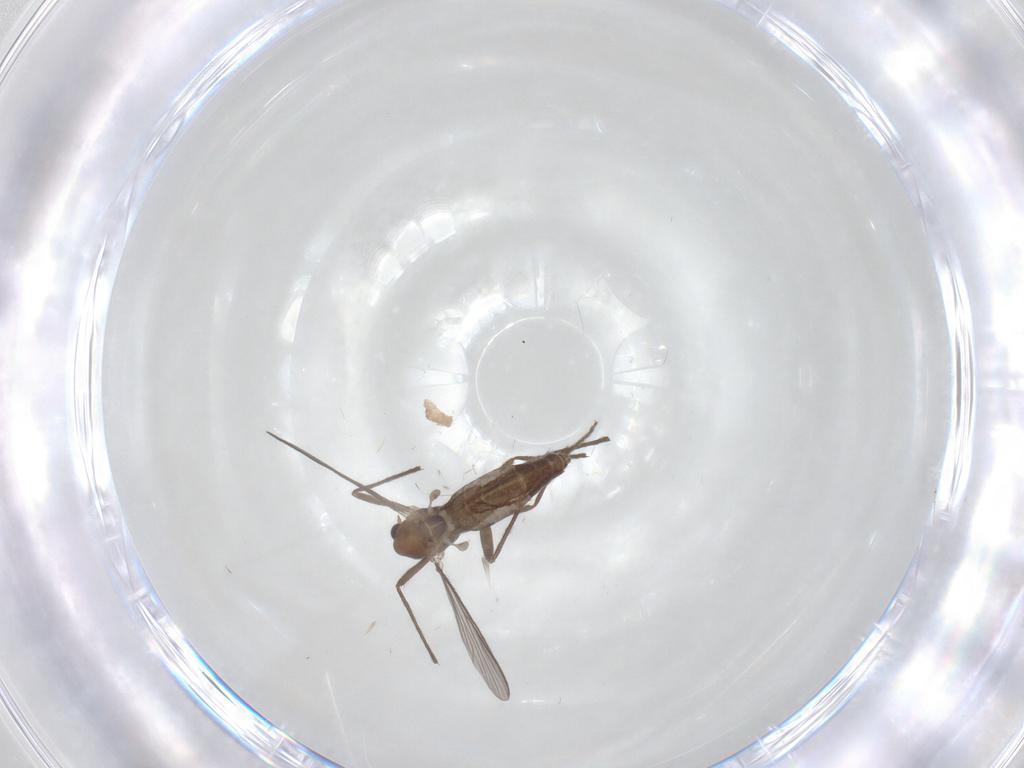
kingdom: Animalia
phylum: Arthropoda
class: Insecta
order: Diptera
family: Chironomidae
